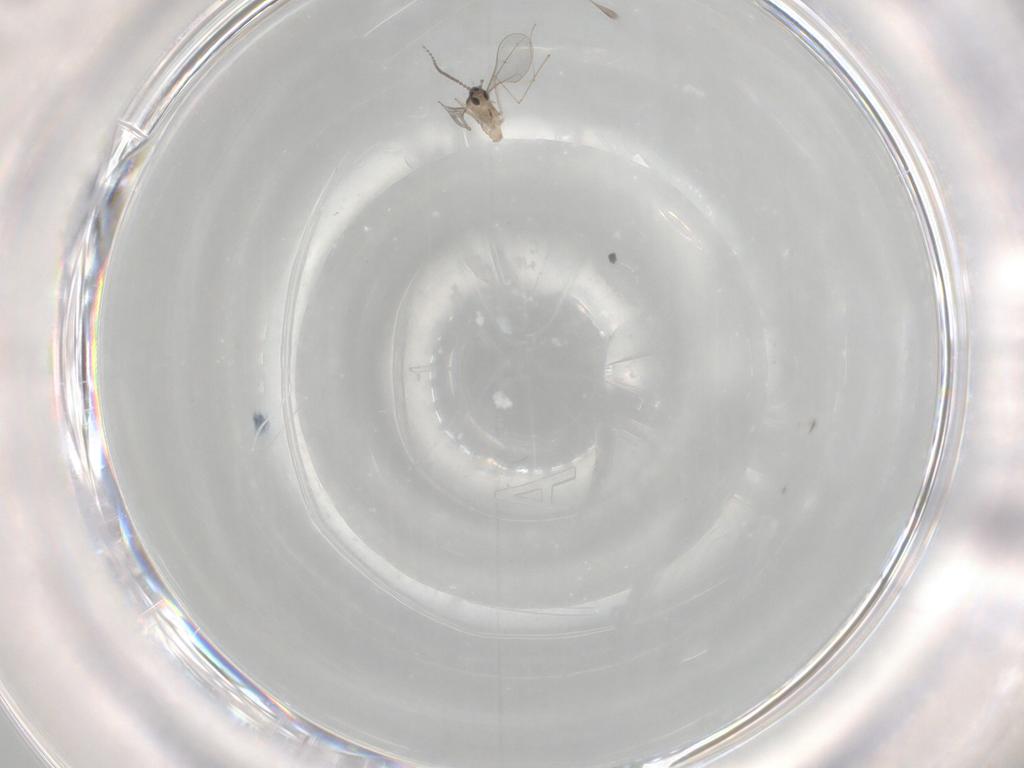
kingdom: Animalia
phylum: Arthropoda
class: Insecta
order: Diptera
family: Cecidomyiidae
